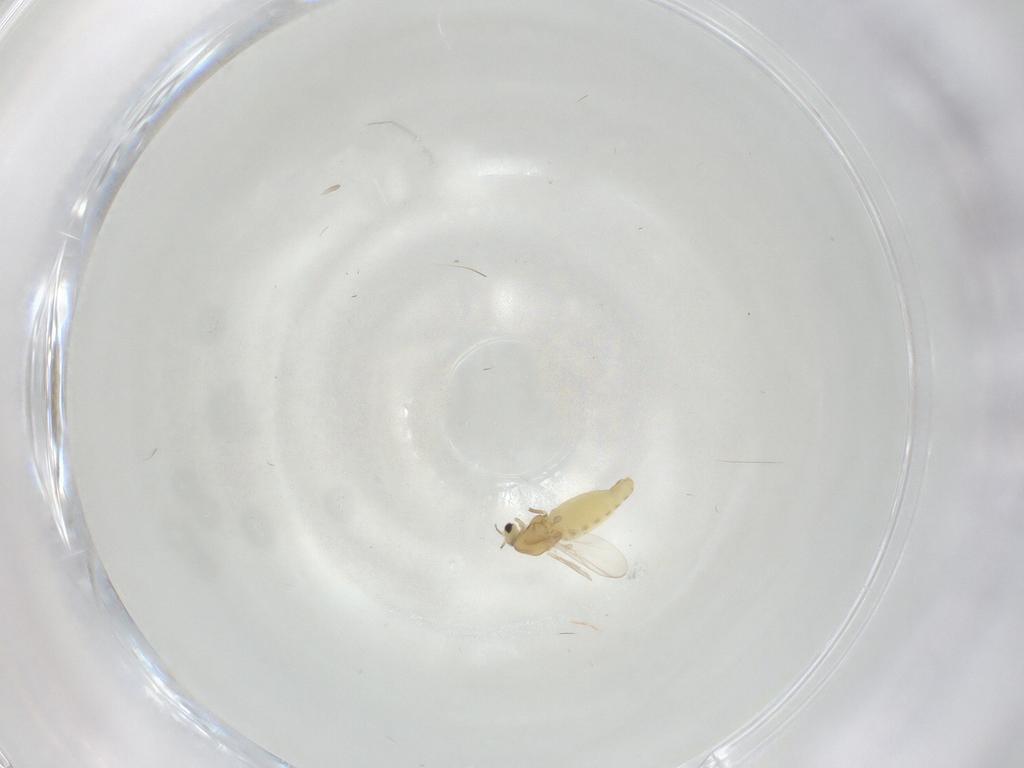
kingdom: Animalia
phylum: Arthropoda
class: Insecta
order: Diptera
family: Chironomidae
